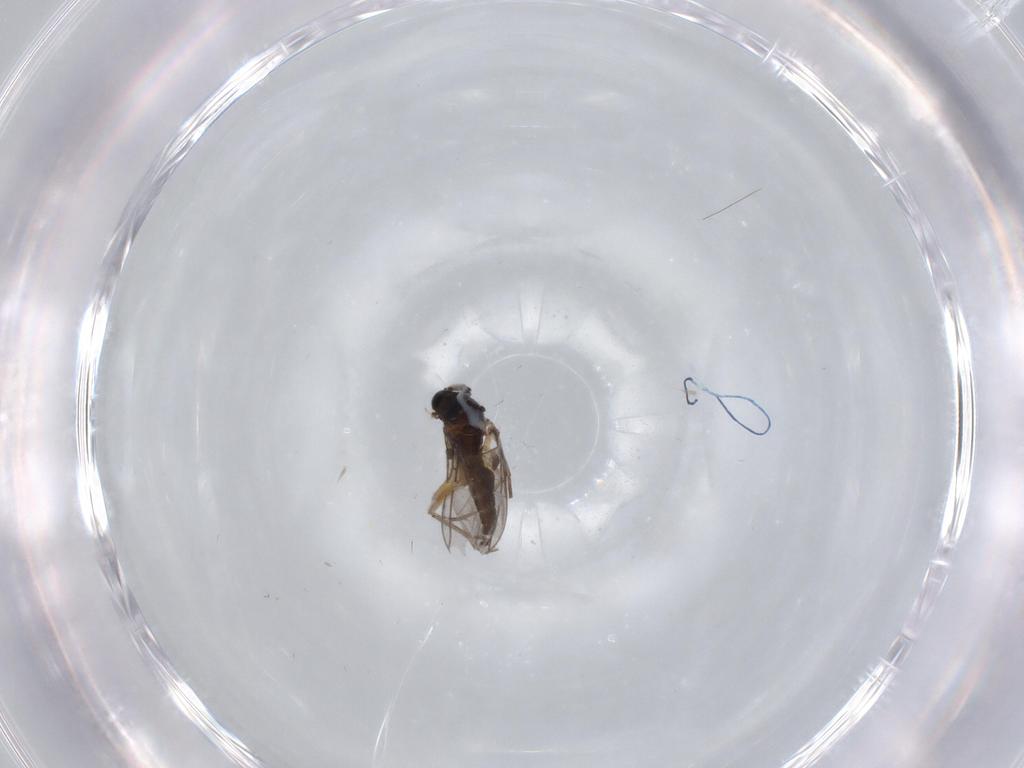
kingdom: Animalia
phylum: Arthropoda
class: Insecta
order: Diptera
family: Sciaridae
